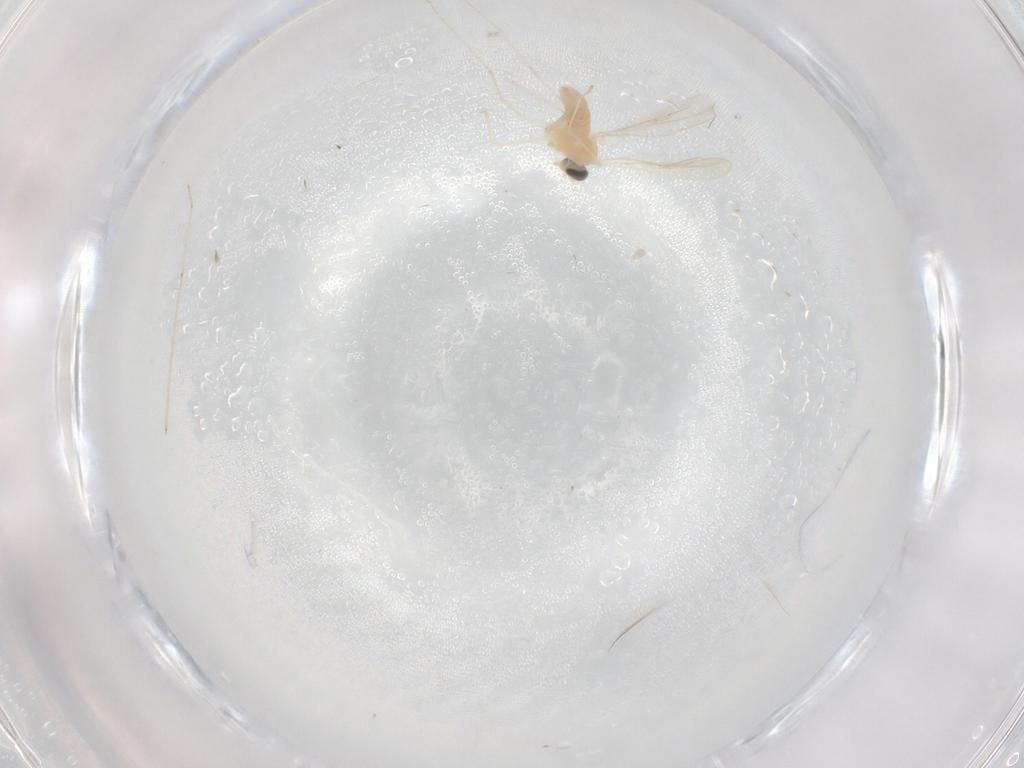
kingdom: Animalia
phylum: Arthropoda
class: Insecta
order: Diptera
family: Cecidomyiidae
